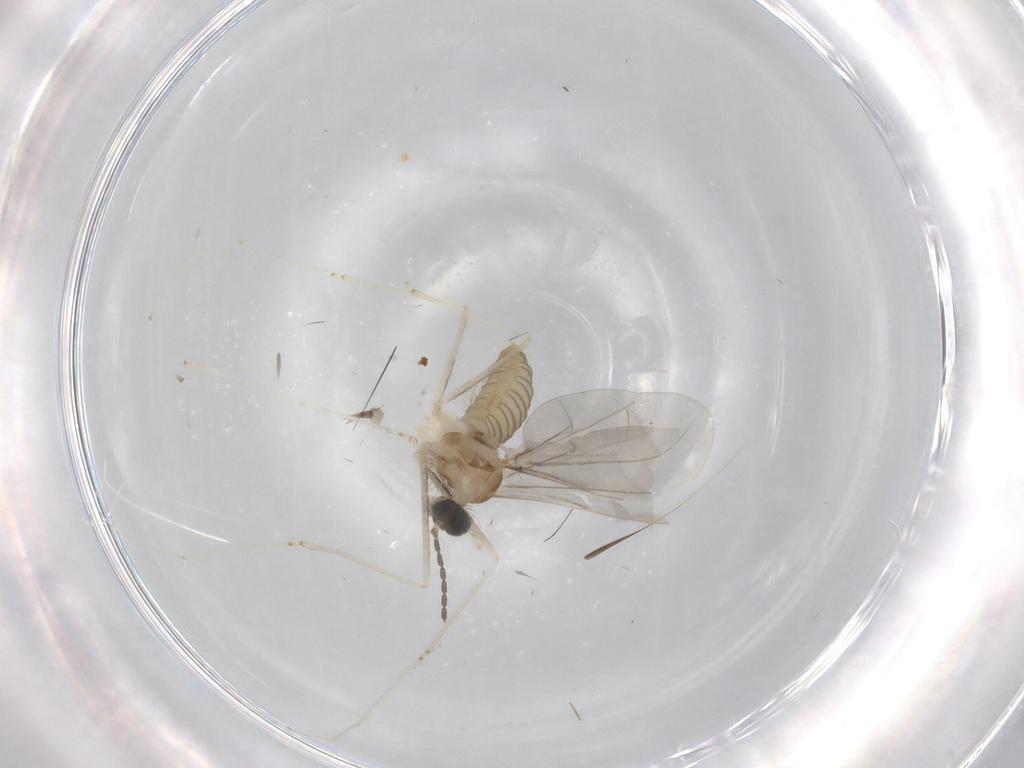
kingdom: Animalia
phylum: Arthropoda
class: Insecta
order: Diptera
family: Cecidomyiidae
